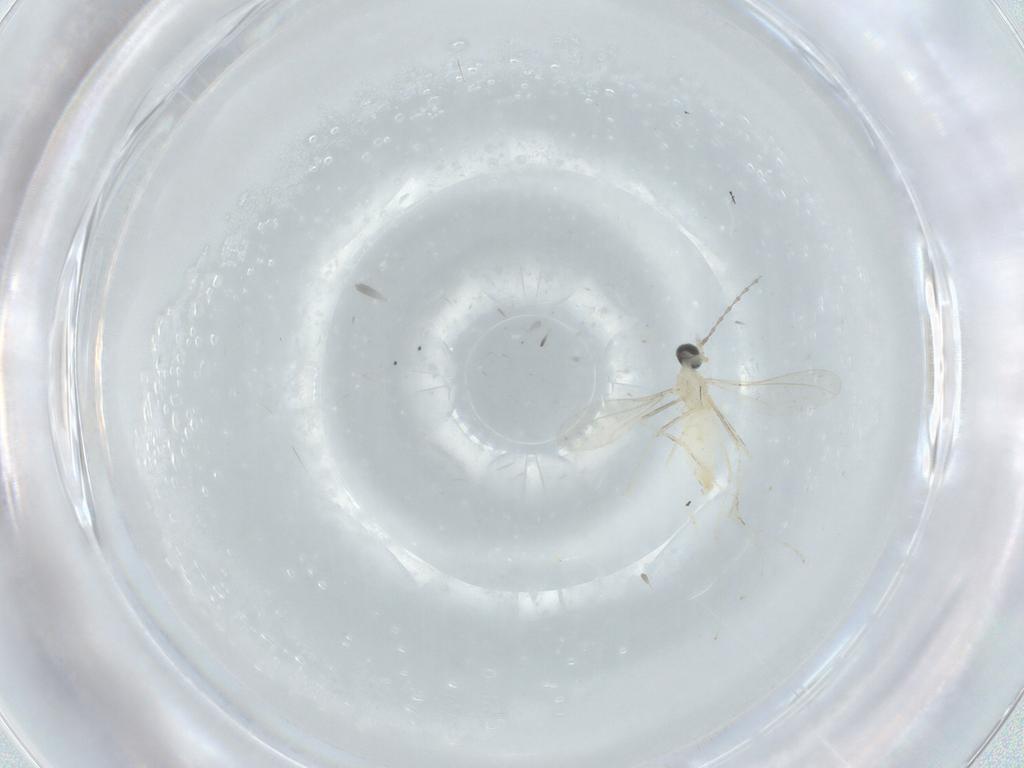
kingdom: Animalia
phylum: Arthropoda
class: Insecta
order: Diptera
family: Cecidomyiidae
